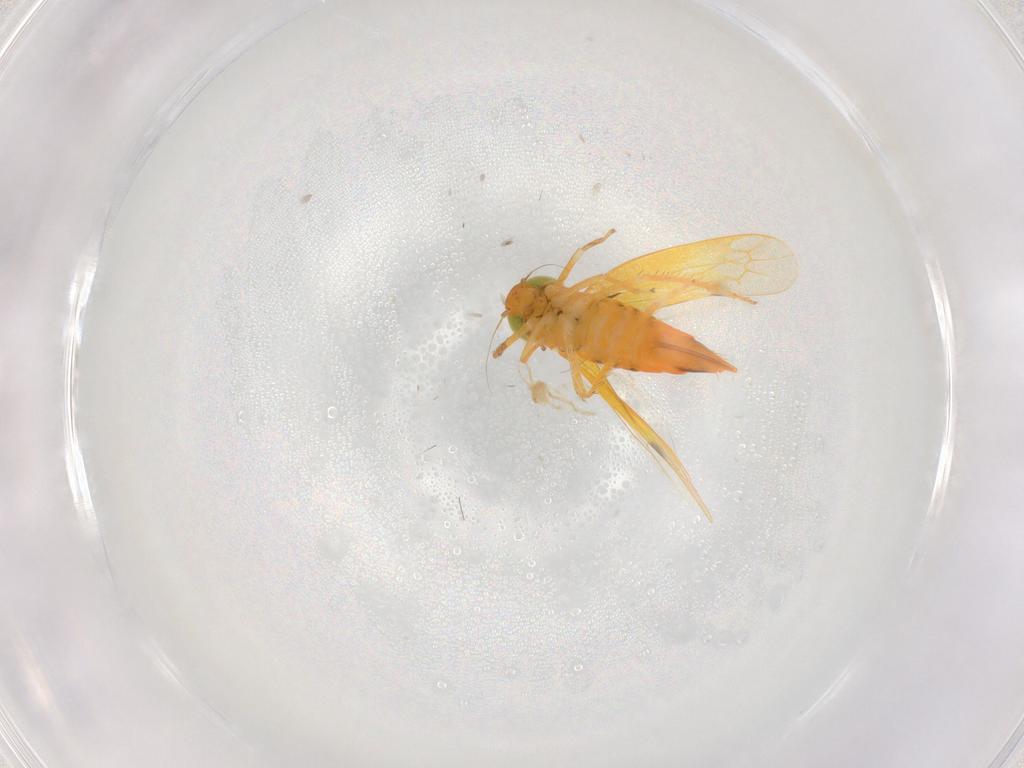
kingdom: Animalia
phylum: Arthropoda
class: Insecta
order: Hemiptera
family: Cicadellidae
